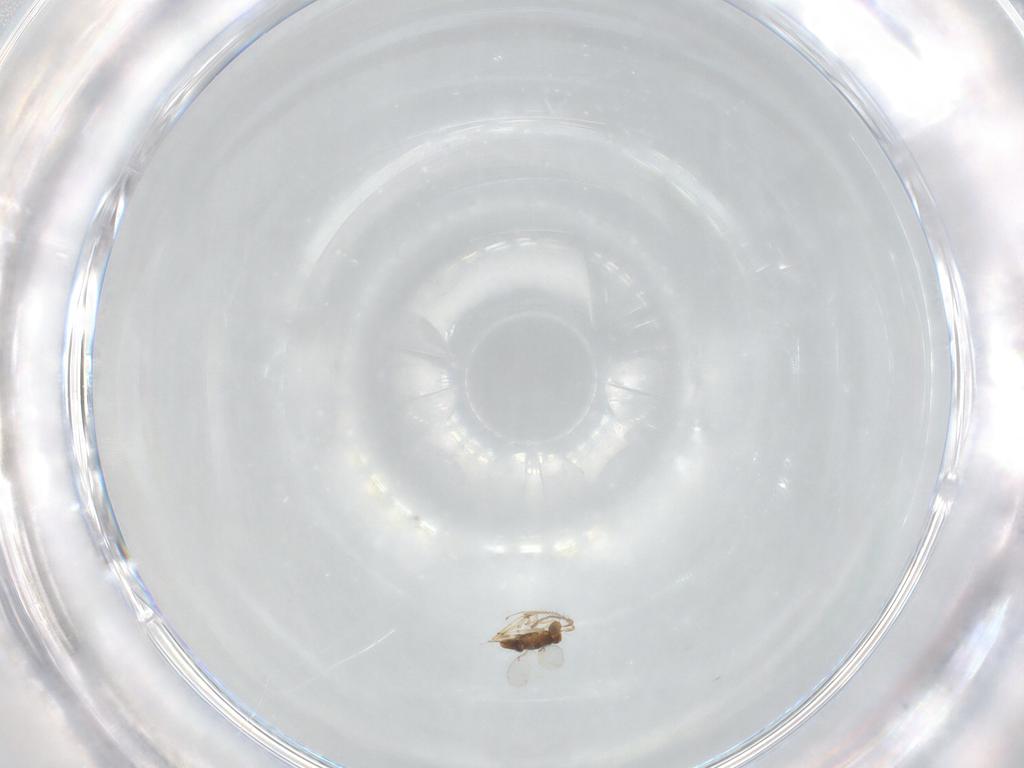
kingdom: Animalia
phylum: Arthropoda
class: Insecta
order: Hymenoptera
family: Encyrtidae
